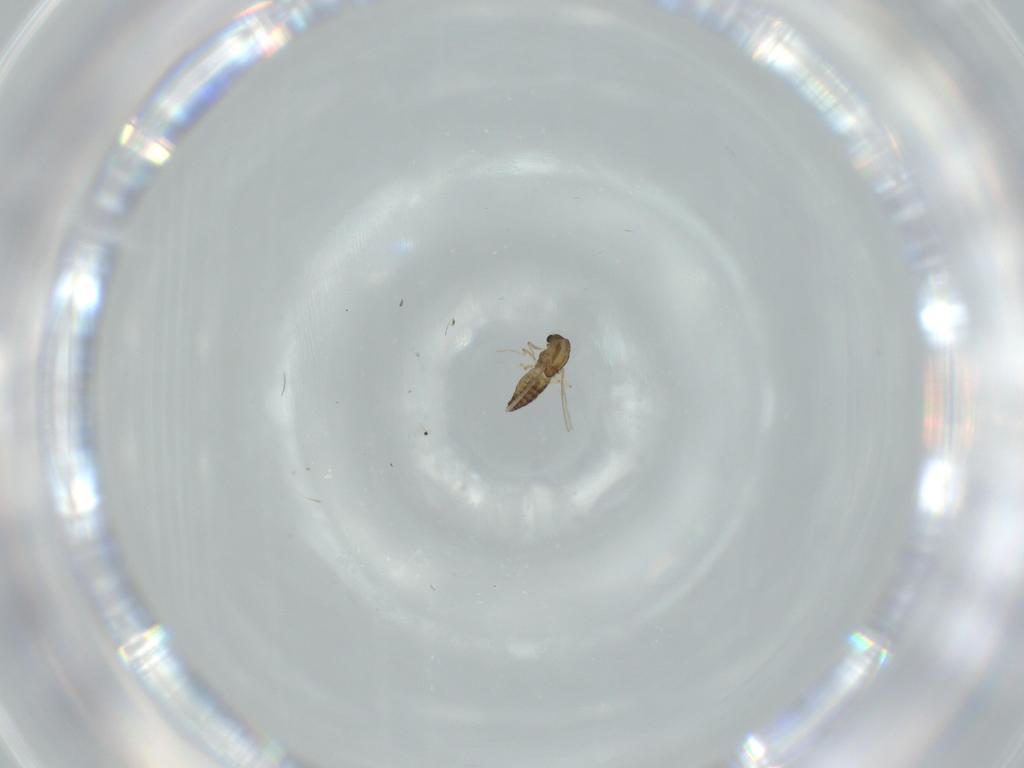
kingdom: Animalia
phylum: Arthropoda
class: Insecta
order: Diptera
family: Chironomidae
